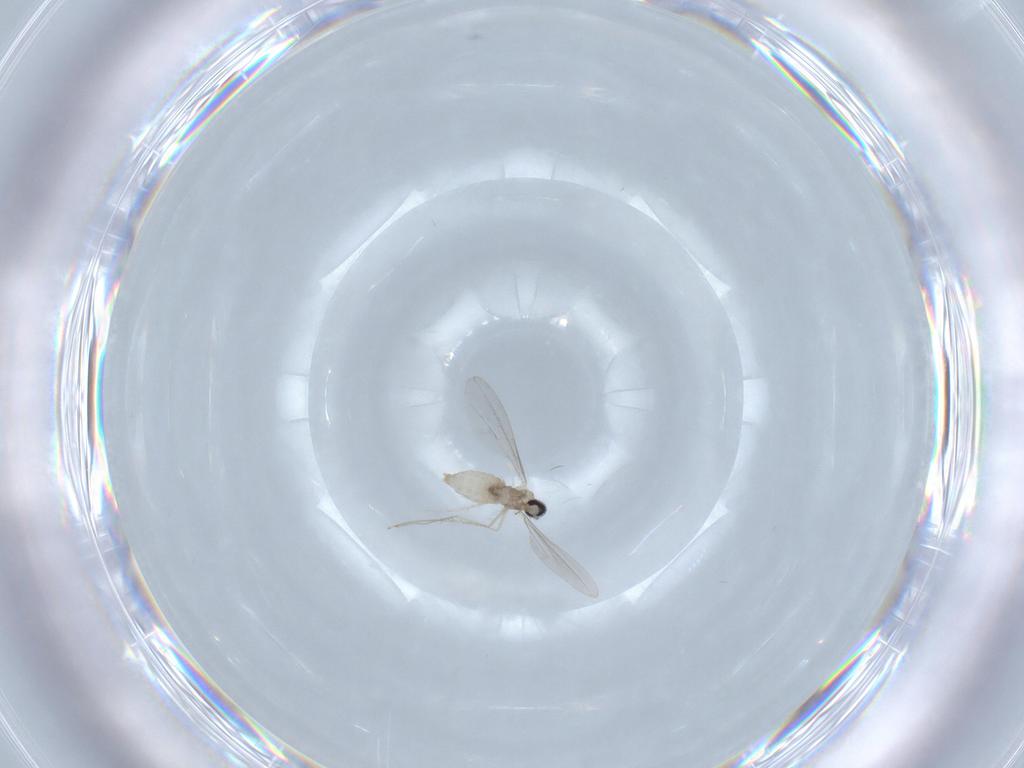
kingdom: Animalia
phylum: Arthropoda
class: Insecta
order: Diptera
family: Cecidomyiidae
